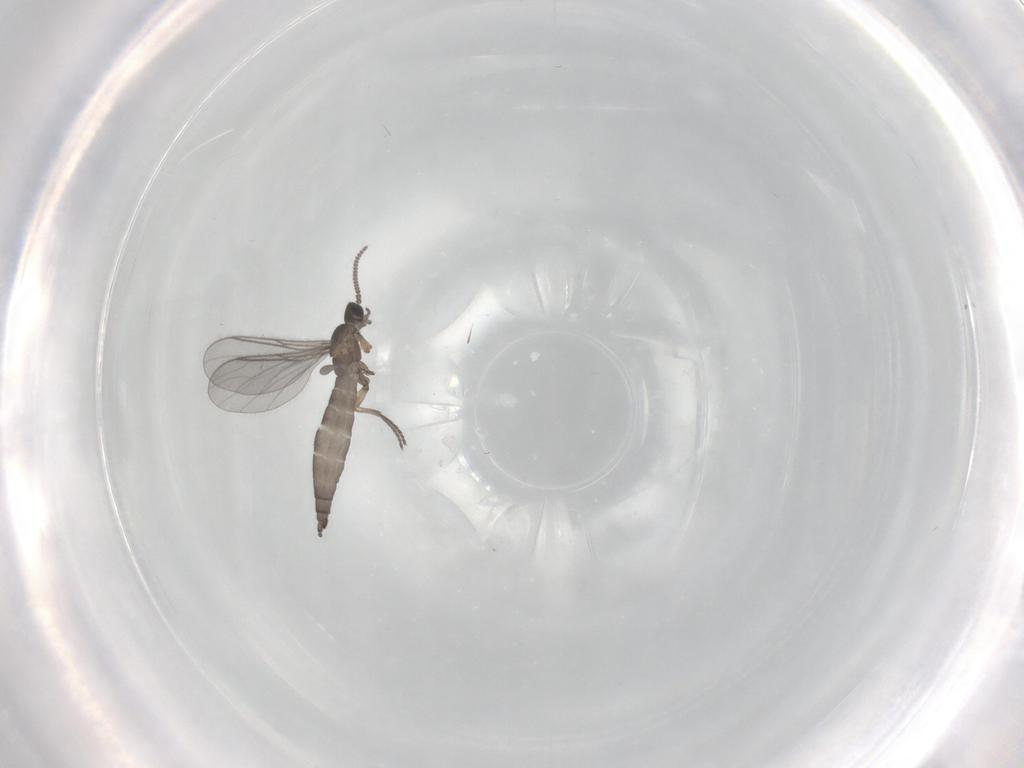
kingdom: Animalia
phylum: Arthropoda
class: Insecta
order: Diptera
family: Sciaridae
